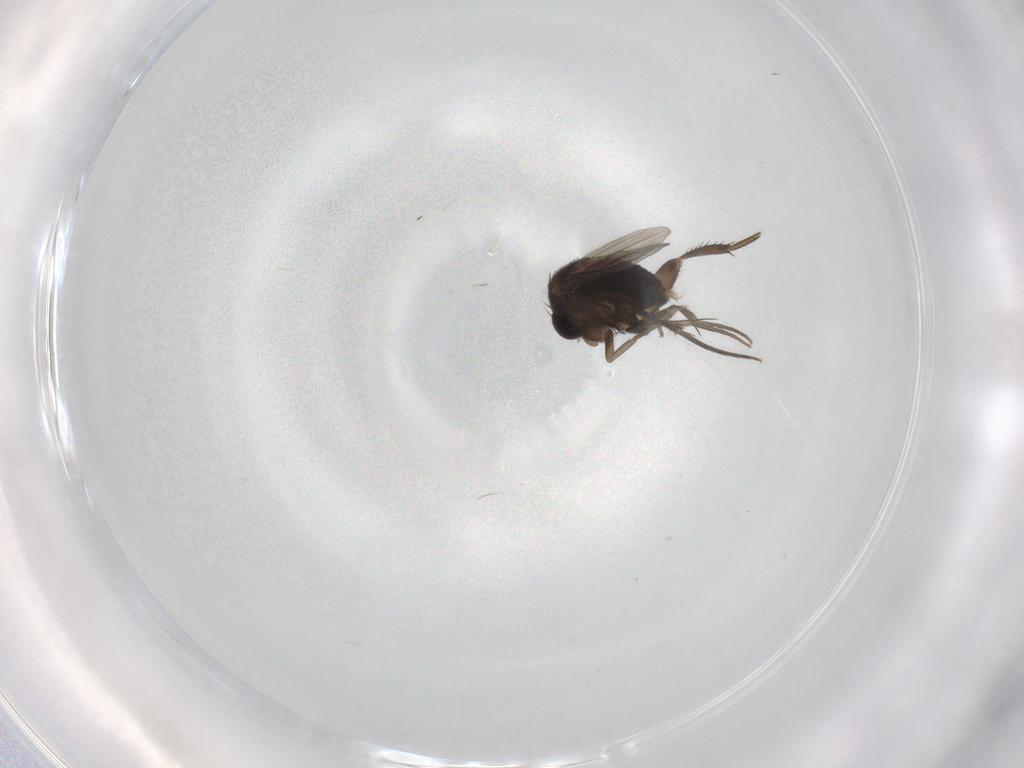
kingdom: Animalia
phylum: Arthropoda
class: Insecta
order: Diptera
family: Phoridae
